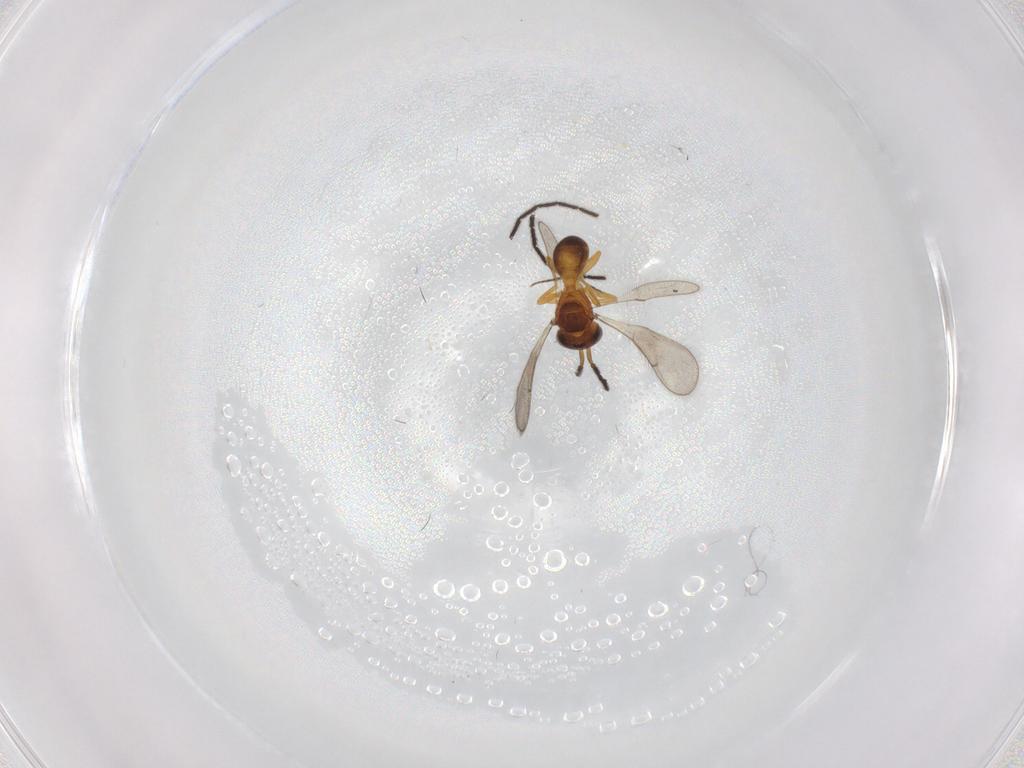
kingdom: Animalia
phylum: Arthropoda
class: Insecta
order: Hymenoptera
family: Scelionidae
